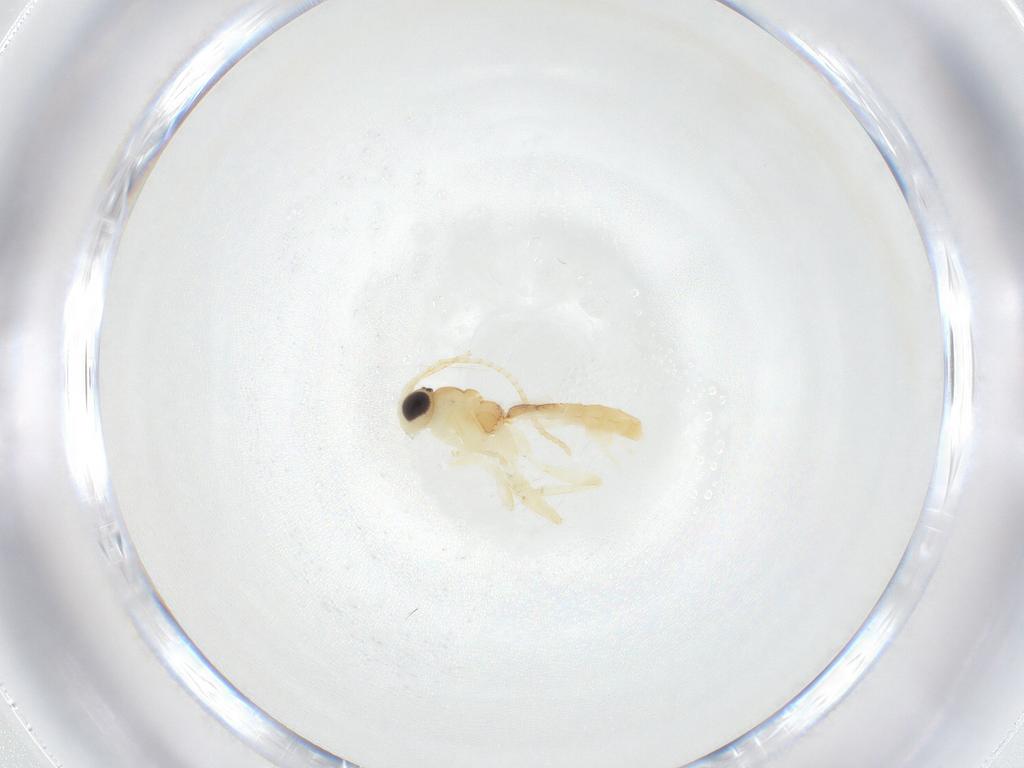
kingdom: Animalia
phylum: Arthropoda
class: Insecta
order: Hymenoptera
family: Ichneumonidae
